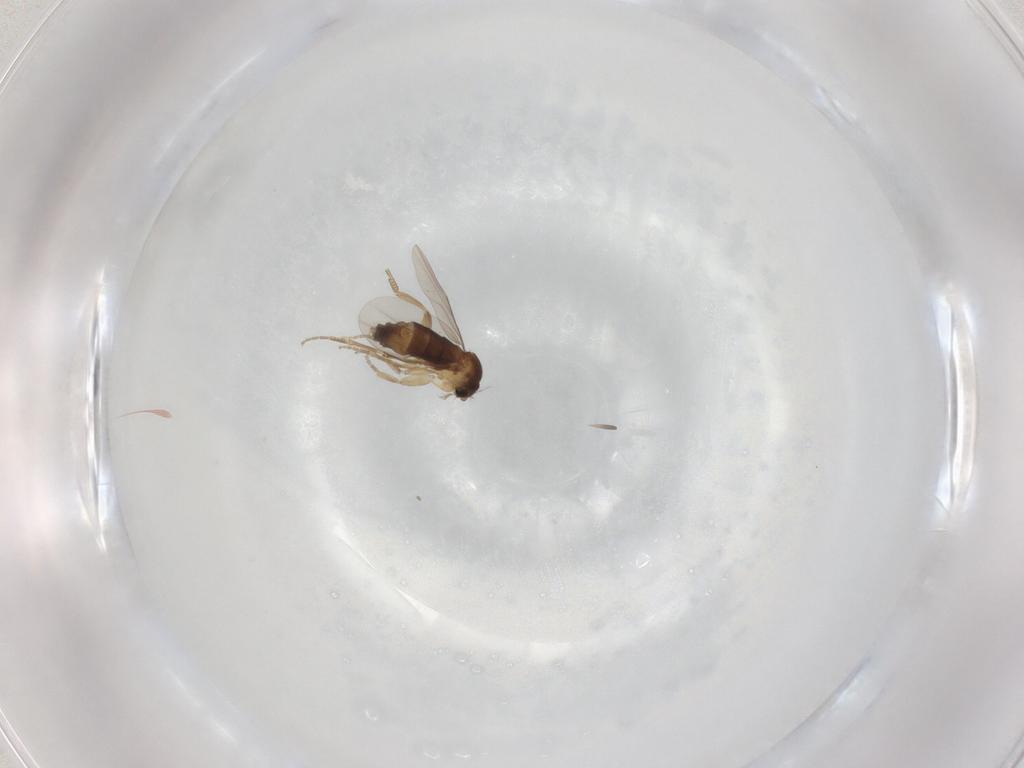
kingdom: Animalia
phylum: Arthropoda
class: Insecta
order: Diptera
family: Phoridae
